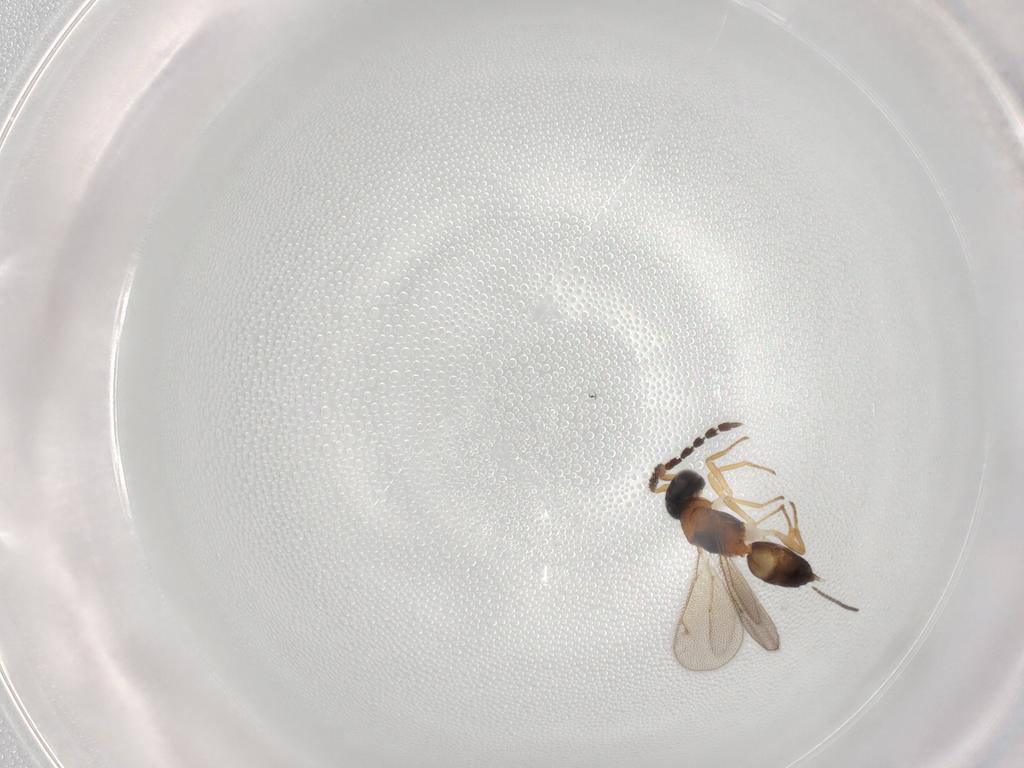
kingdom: Animalia
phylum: Arthropoda
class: Insecta
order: Hymenoptera
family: Eulophidae
